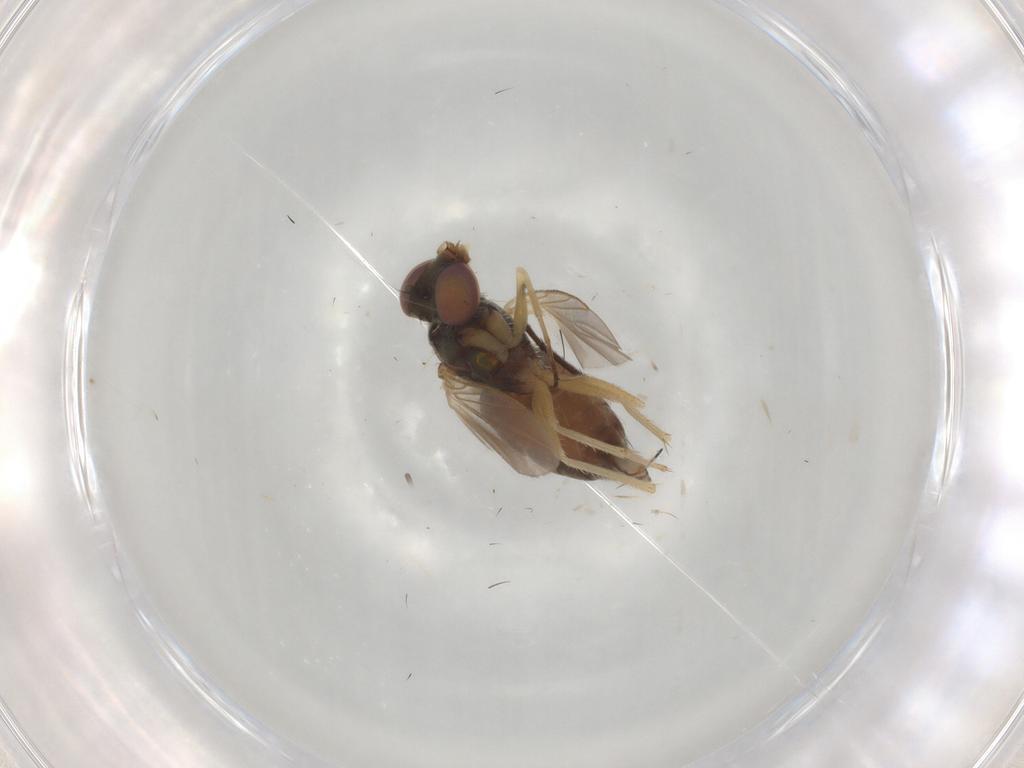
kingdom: Animalia
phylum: Arthropoda
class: Insecta
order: Diptera
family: Dolichopodidae
